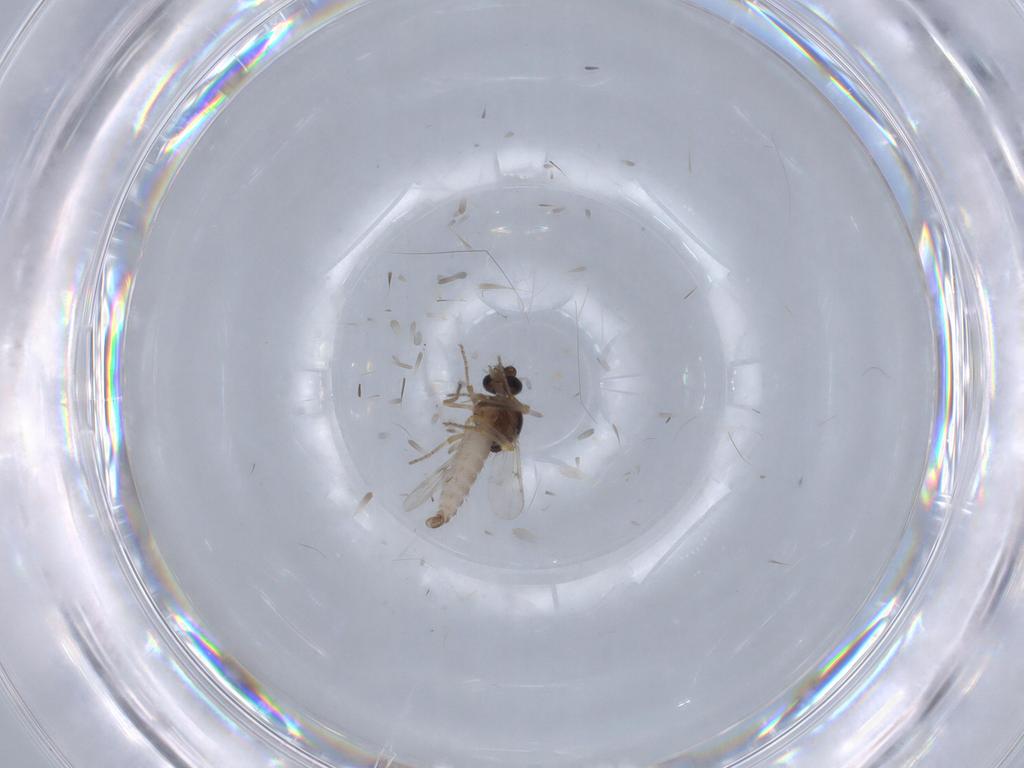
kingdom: Animalia
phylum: Arthropoda
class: Insecta
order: Diptera
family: Ceratopogonidae
